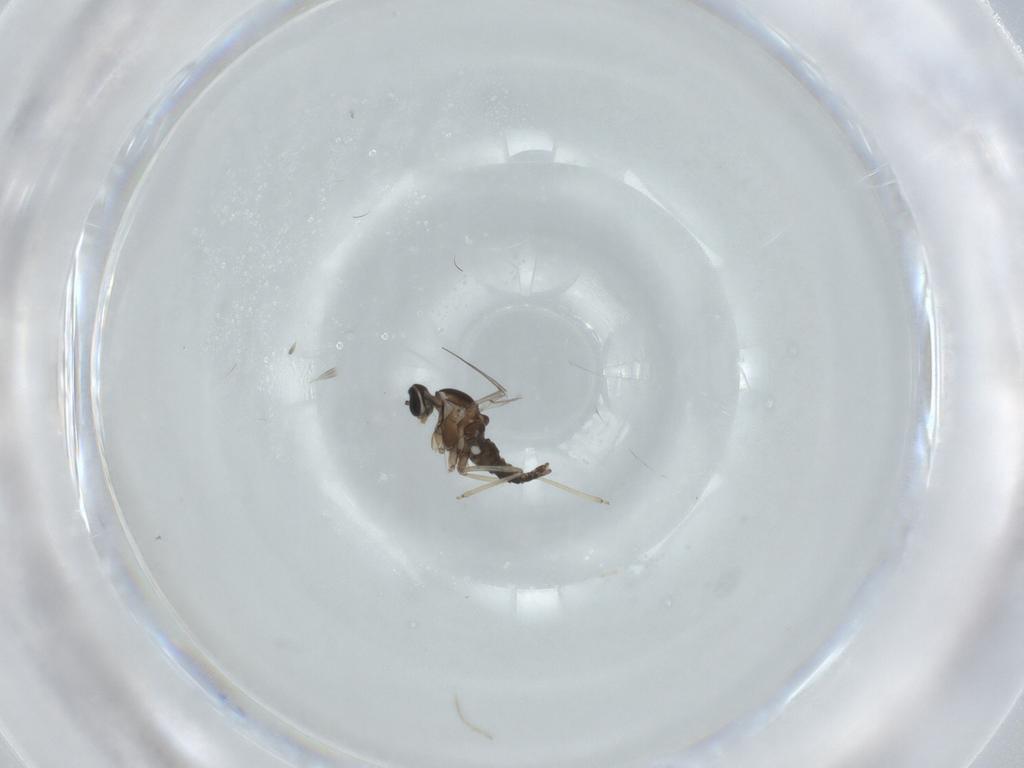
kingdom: Animalia
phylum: Arthropoda
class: Insecta
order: Diptera
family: Cecidomyiidae
